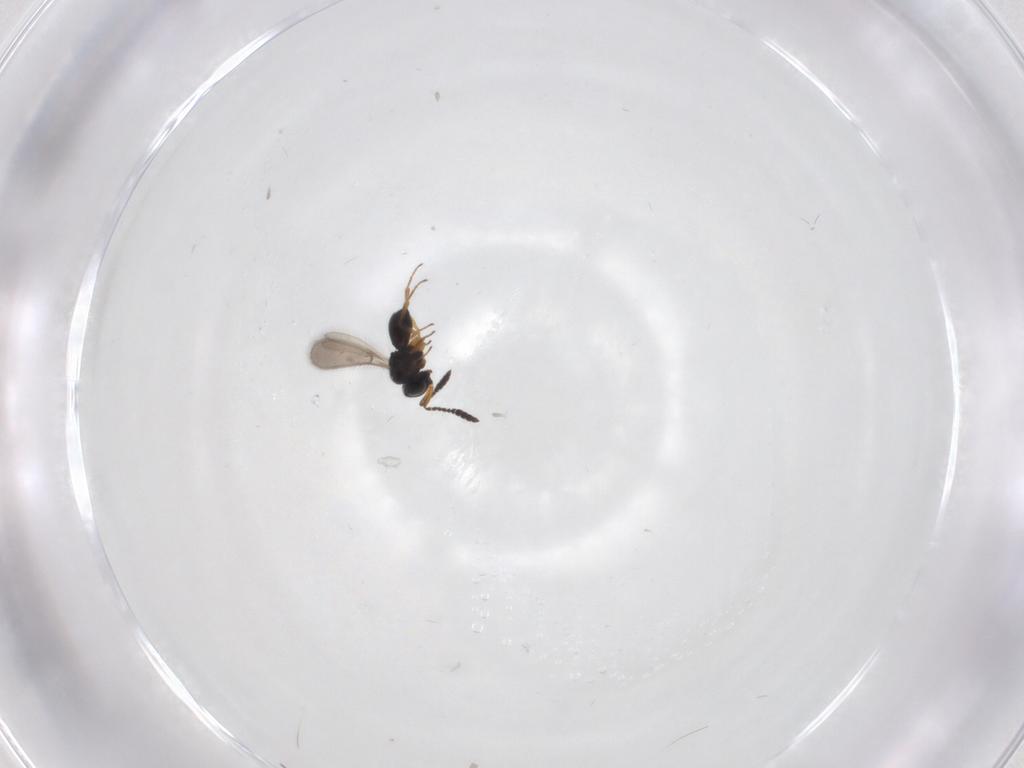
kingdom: Animalia
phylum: Arthropoda
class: Insecta
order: Hymenoptera
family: Scelionidae
